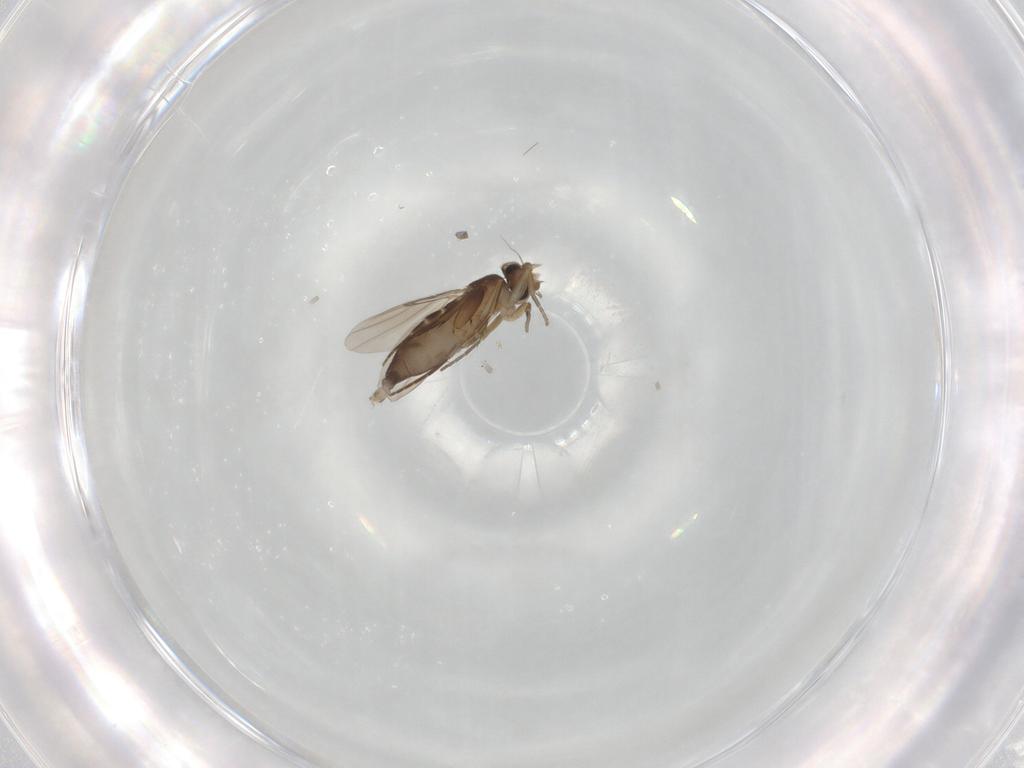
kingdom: Animalia
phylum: Arthropoda
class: Insecta
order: Diptera
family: Phoridae
